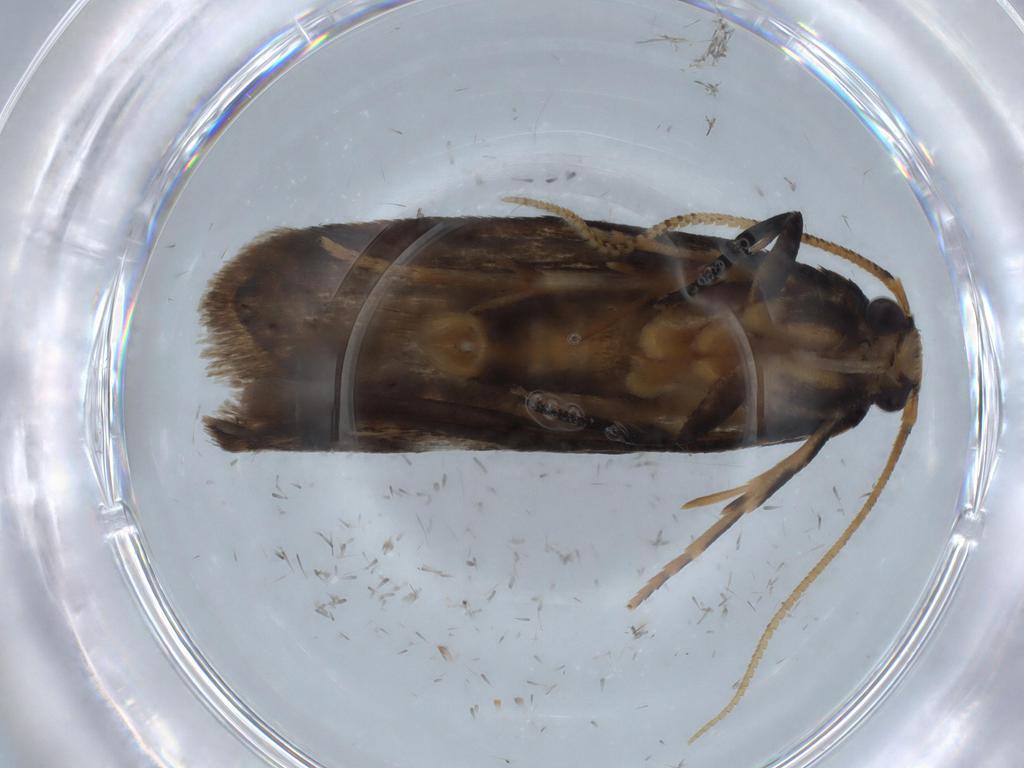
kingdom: Animalia
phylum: Arthropoda
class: Insecta
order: Lepidoptera
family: Oecophoridae
